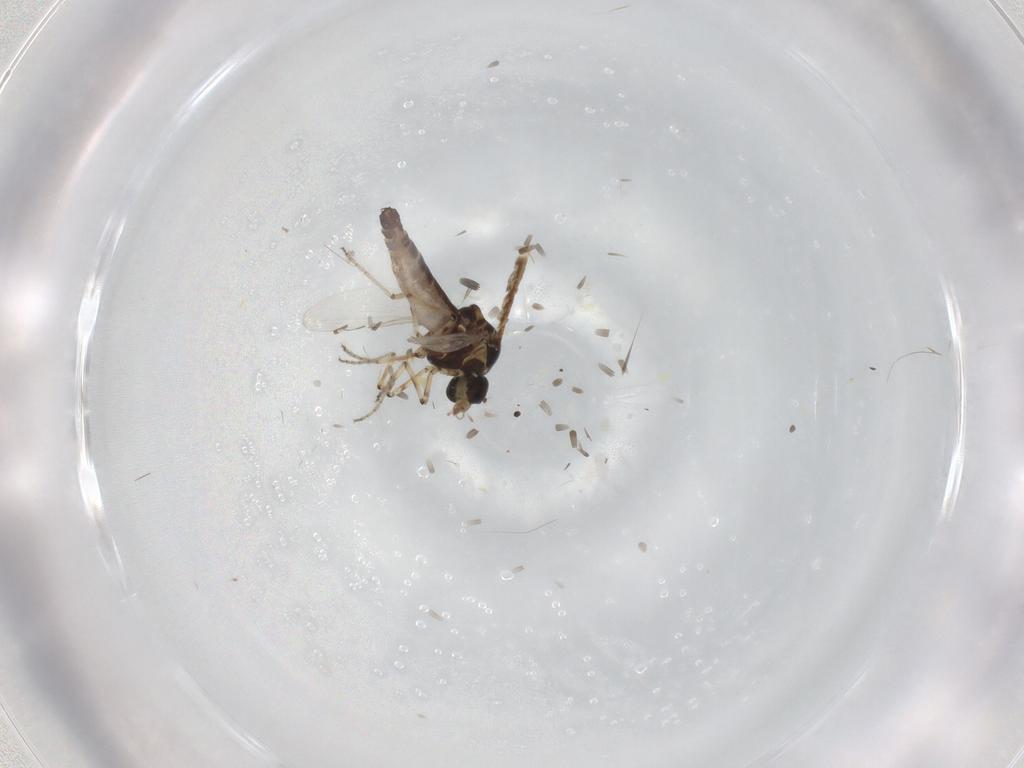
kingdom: Animalia
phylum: Arthropoda
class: Insecta
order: Diptera
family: Ceratopogonidae
